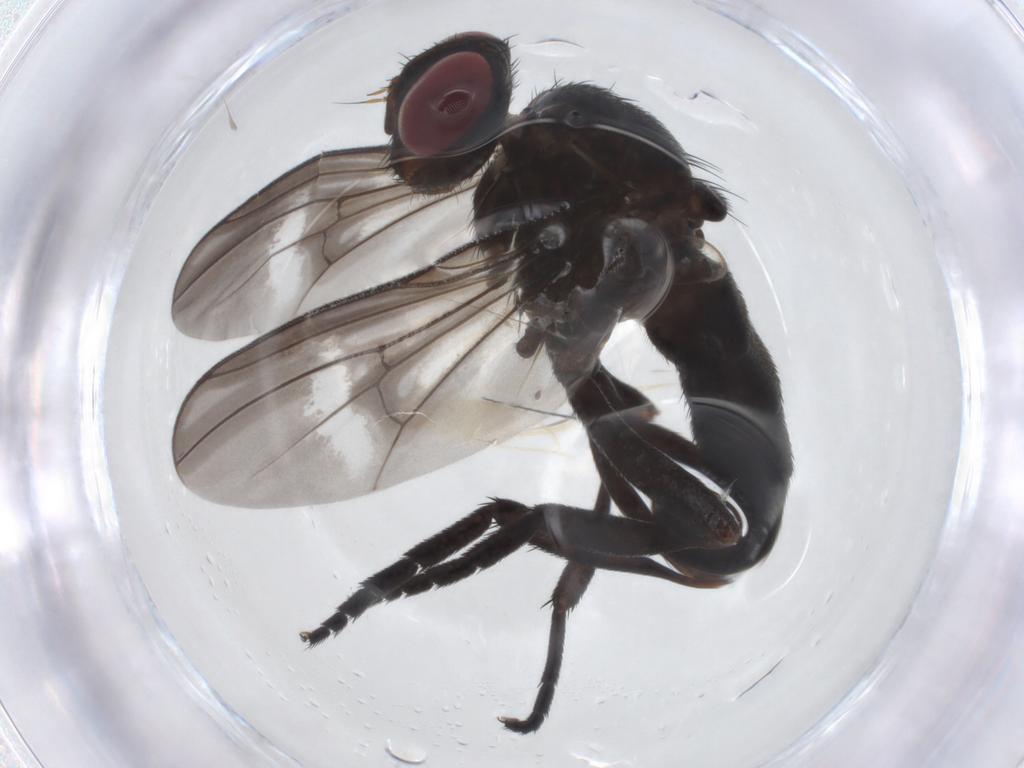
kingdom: Animalia
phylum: Arthropoda
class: Insecta
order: Diptera
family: Calliphoridae
